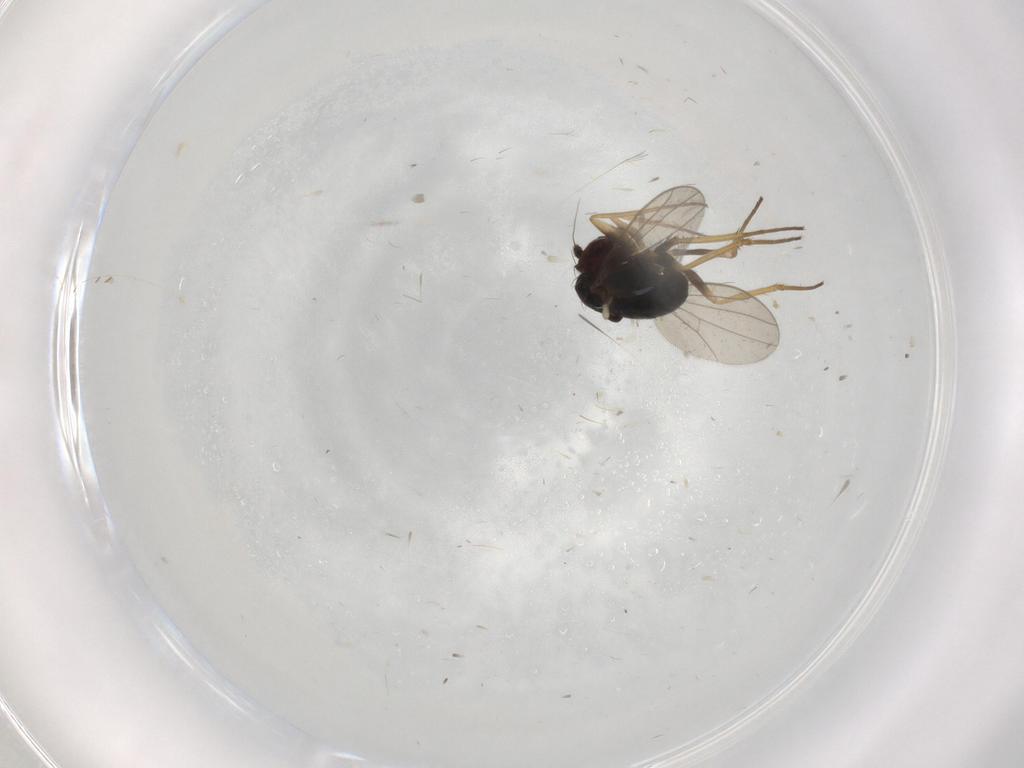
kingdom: Animalia
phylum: Arthropoda
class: Insecta
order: Diptera
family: Dolichopodidae
